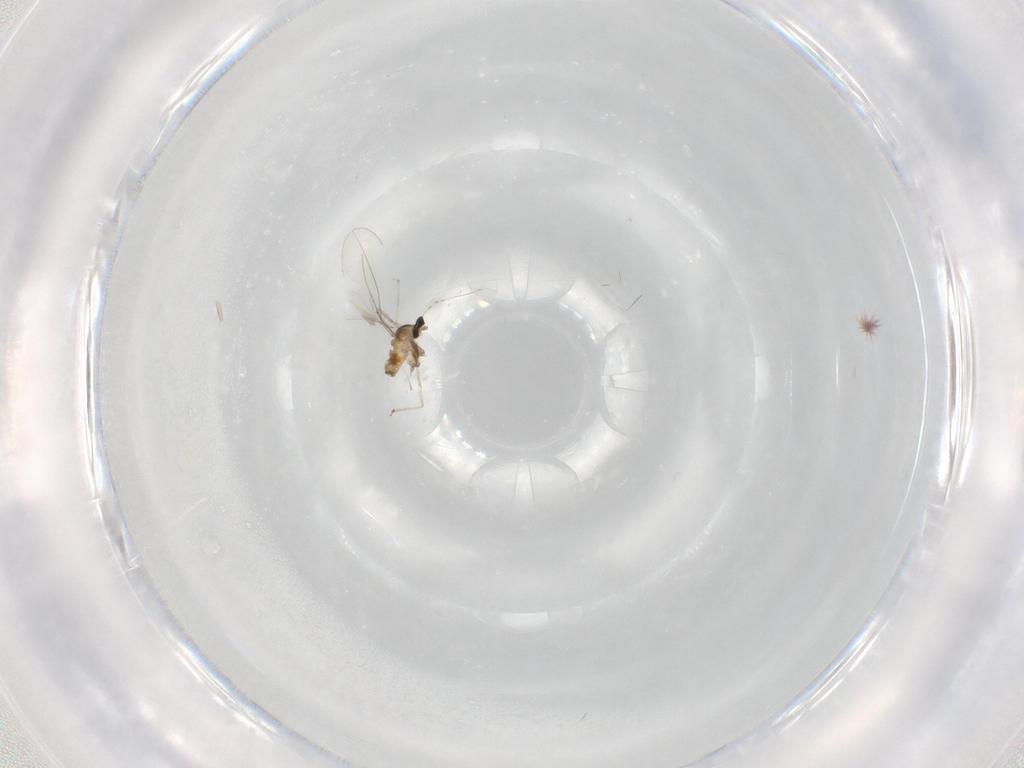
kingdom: Animalia
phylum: Arthropoda
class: Insecta
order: Diptera
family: Cecidomyiidae
